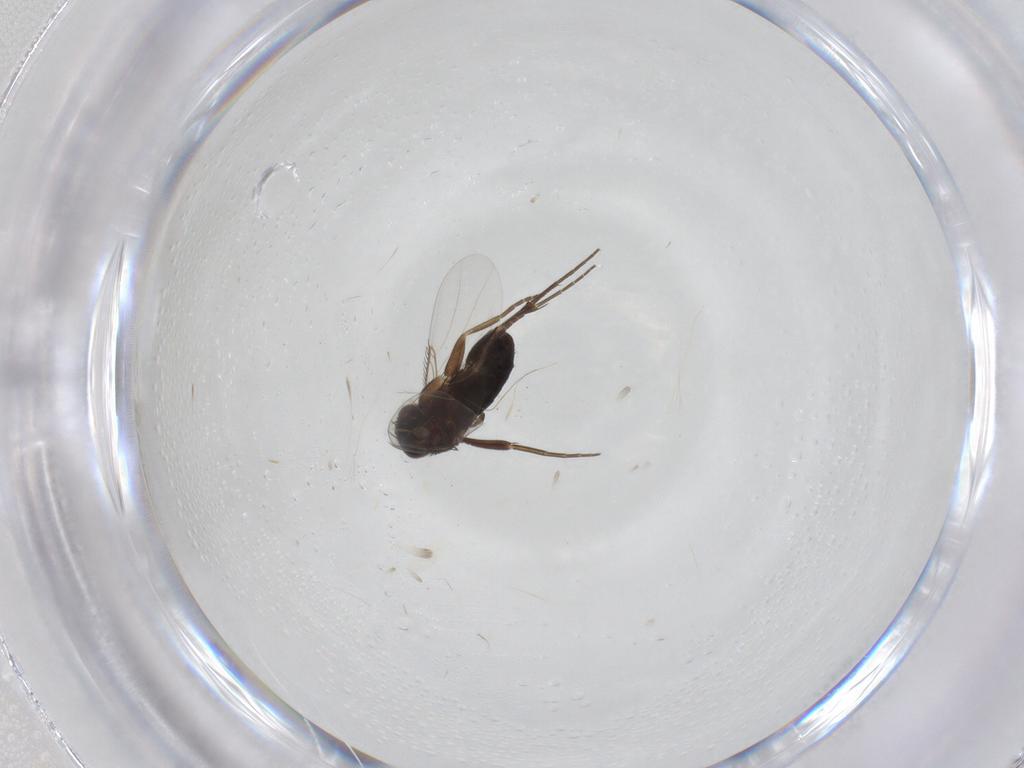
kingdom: Animalia
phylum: Arthropoda
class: Insecta
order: Diptera
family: Phoridae
